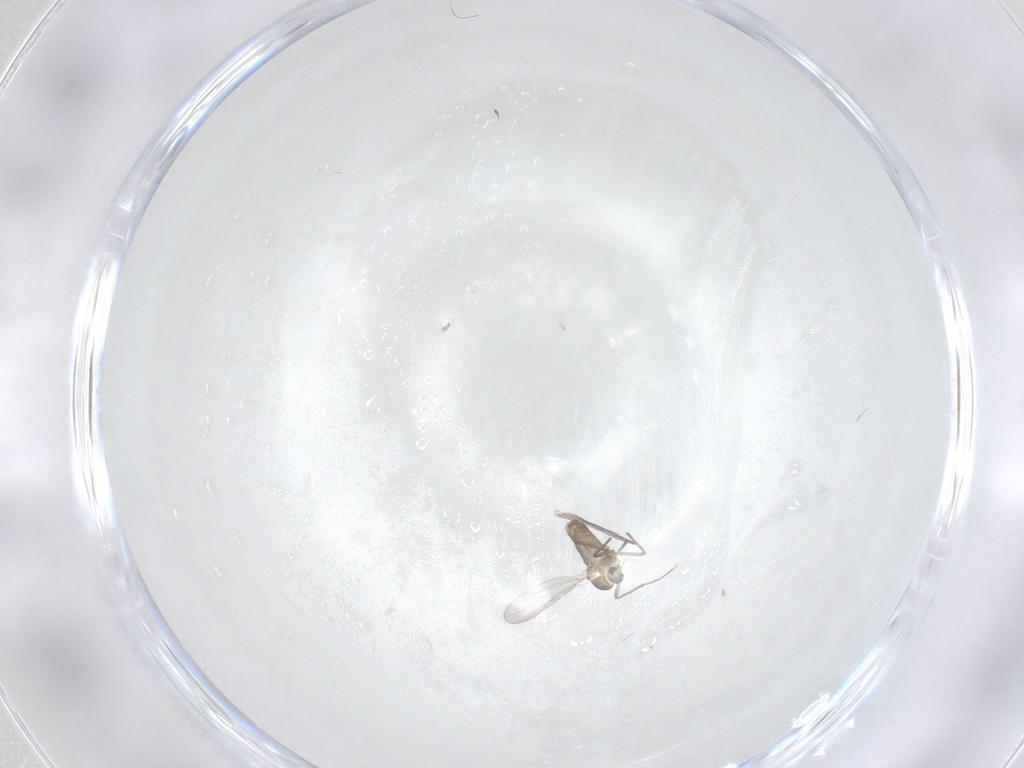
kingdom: Animalia
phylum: Arthropoda
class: Insecta
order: Diptera
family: Chironomidae
